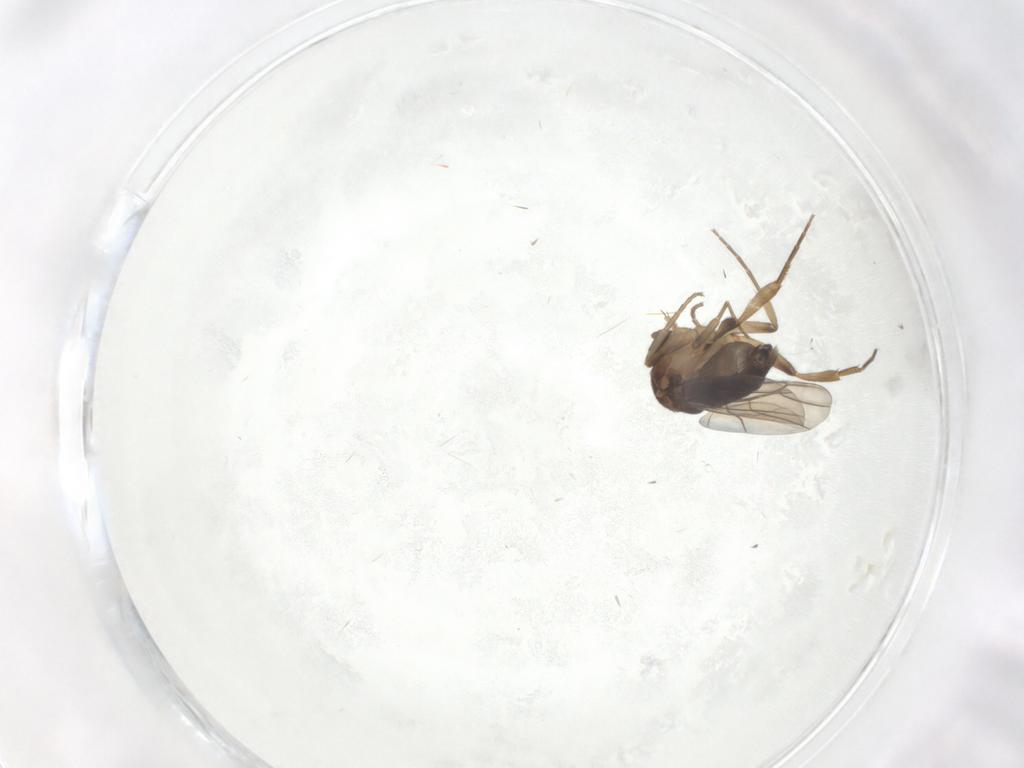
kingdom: Animalia
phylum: Arthropoda
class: Insecta
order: Diptera
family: Phoridae
